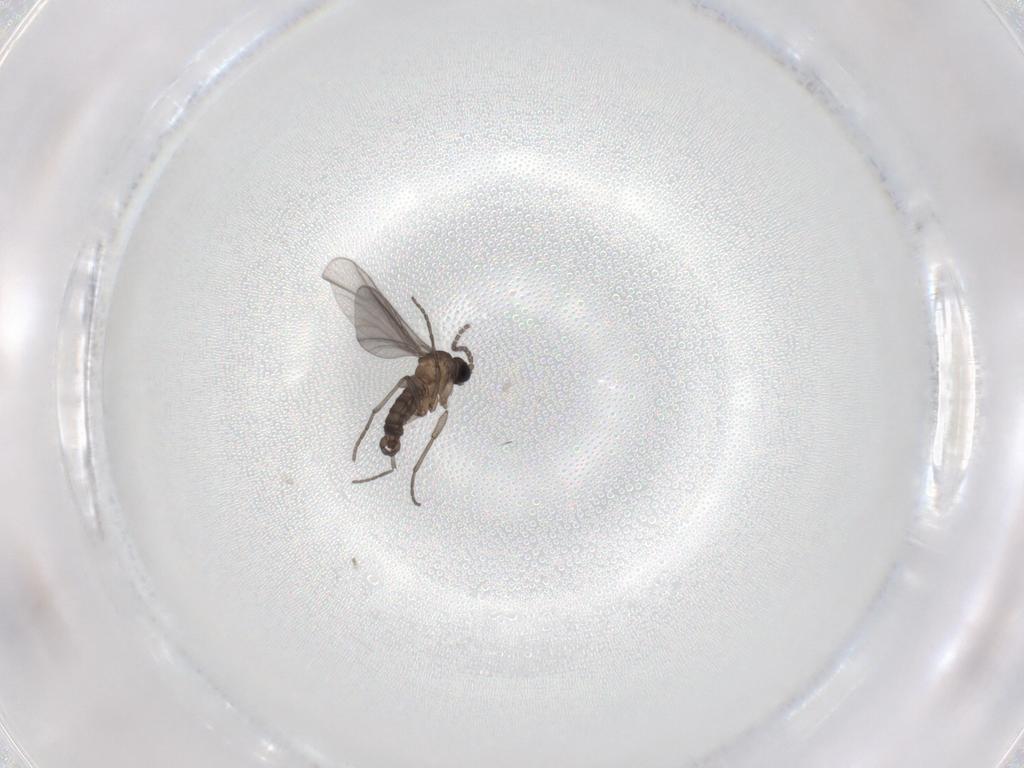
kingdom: Animalia
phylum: Arthropoda
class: Insecta
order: Diptera
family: Sciaridae
